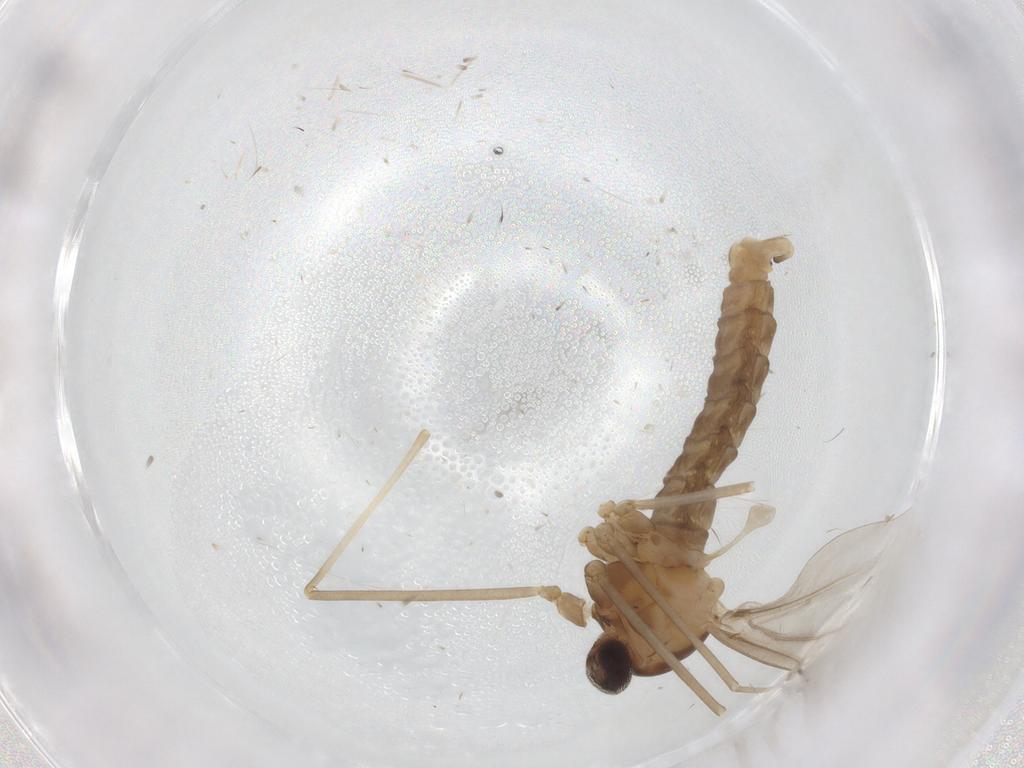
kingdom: Animalia
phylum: Arthropoda
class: Insecta
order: Diptera
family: Cecidomyiidae
